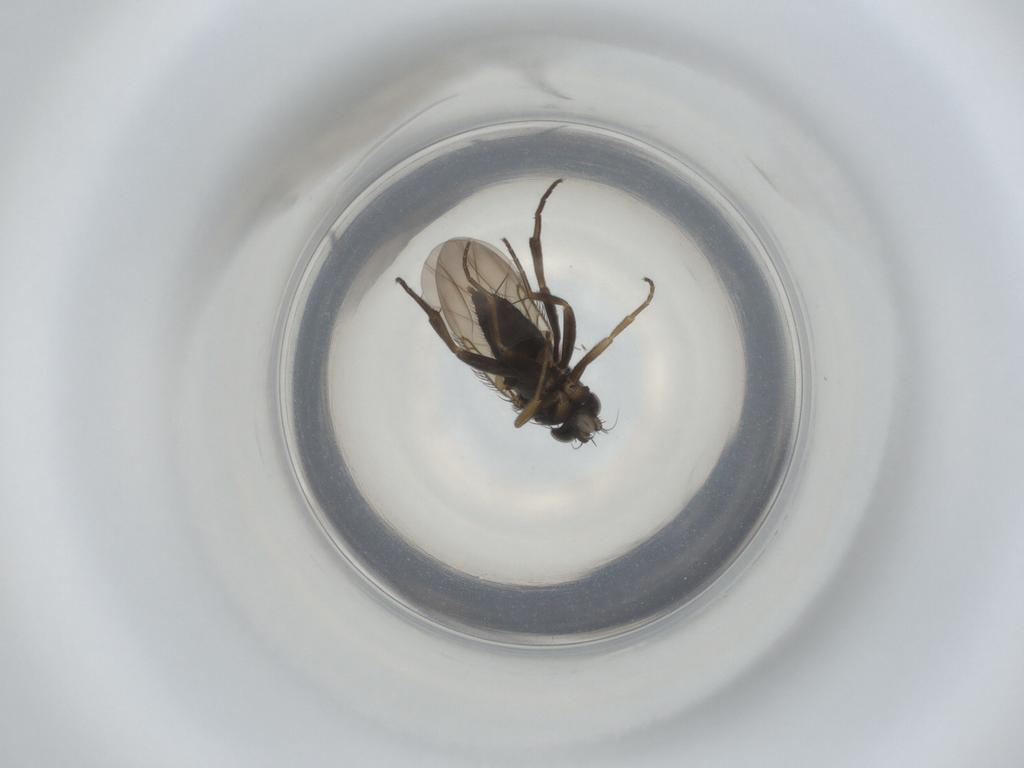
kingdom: Animalia
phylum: Arthropoda
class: Insecta
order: Diptera
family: Phoridae
